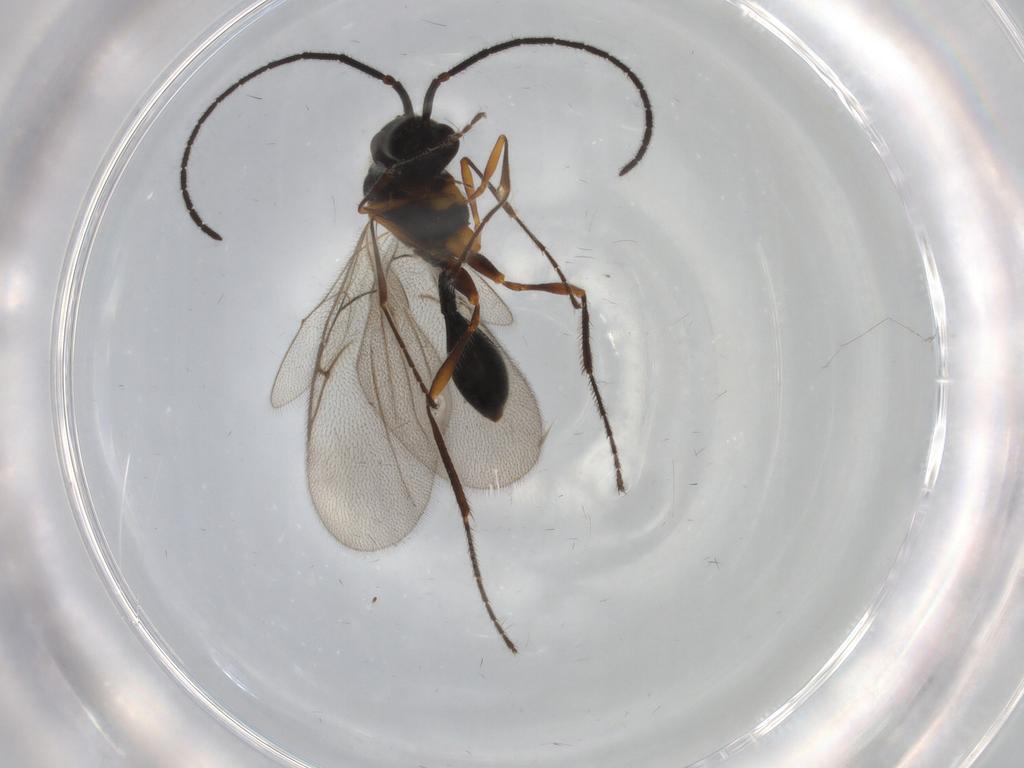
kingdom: Animalia
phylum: Arthropoda
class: Insecta
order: Hymenoptera
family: Diapriidae
